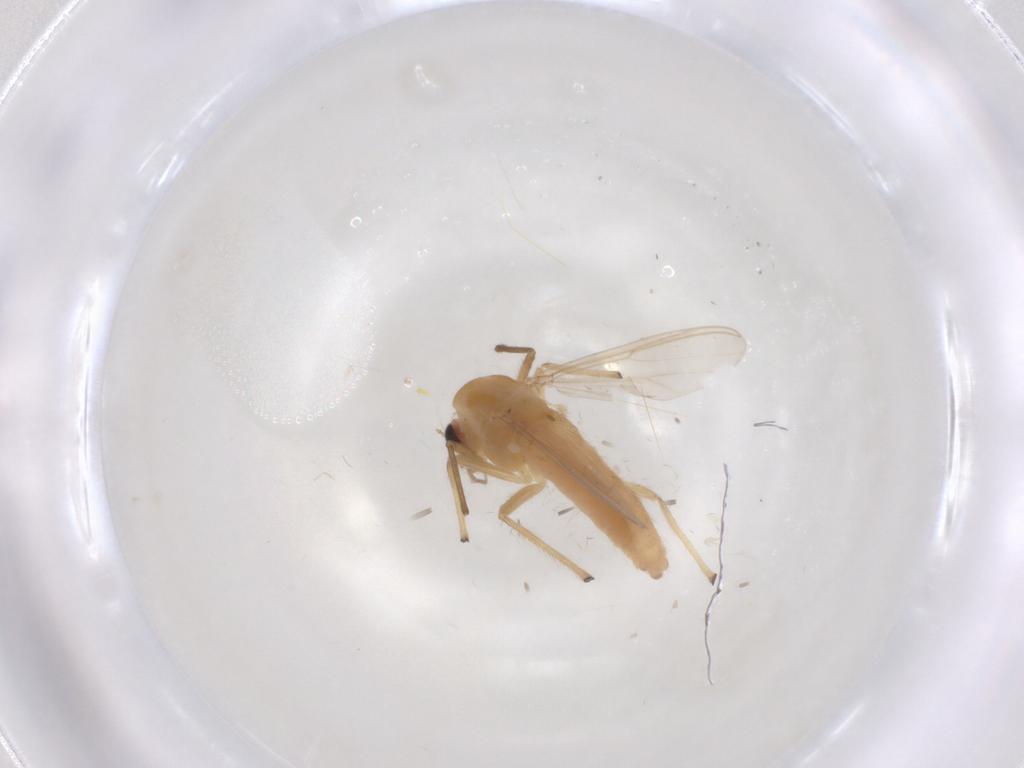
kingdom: Animalia
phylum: Arthropoda
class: Insecta
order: Diptera
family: Chironomidae
